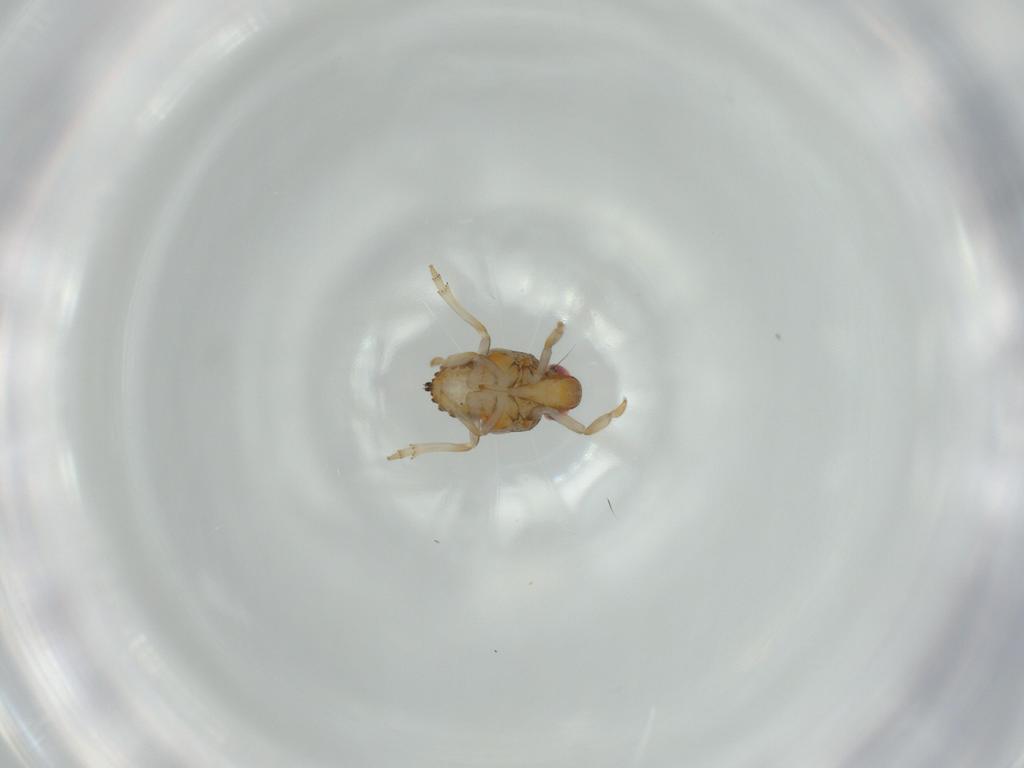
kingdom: Animalia
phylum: Arthropoda
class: Insecta
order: Hemiptera
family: Issidae
